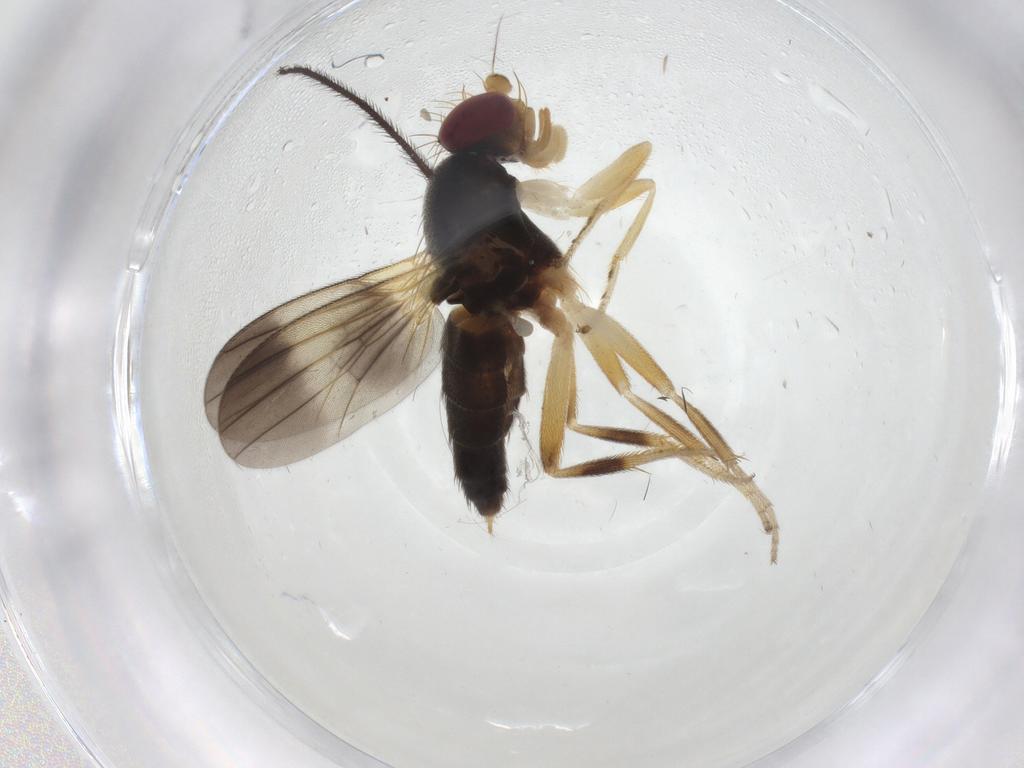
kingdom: Animalia
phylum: Arthropoda
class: Insecta
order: Diptera
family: Clusiidae
